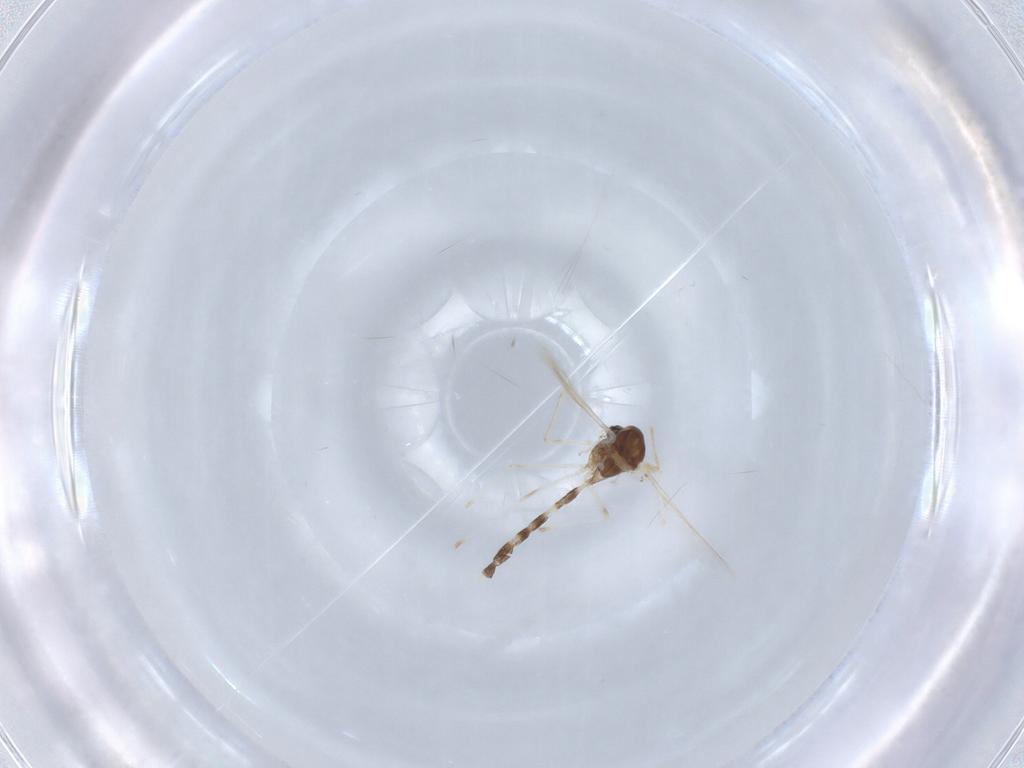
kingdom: Animalia
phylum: Arthropoda
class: Insecta
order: Diptera
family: Chironomidae
